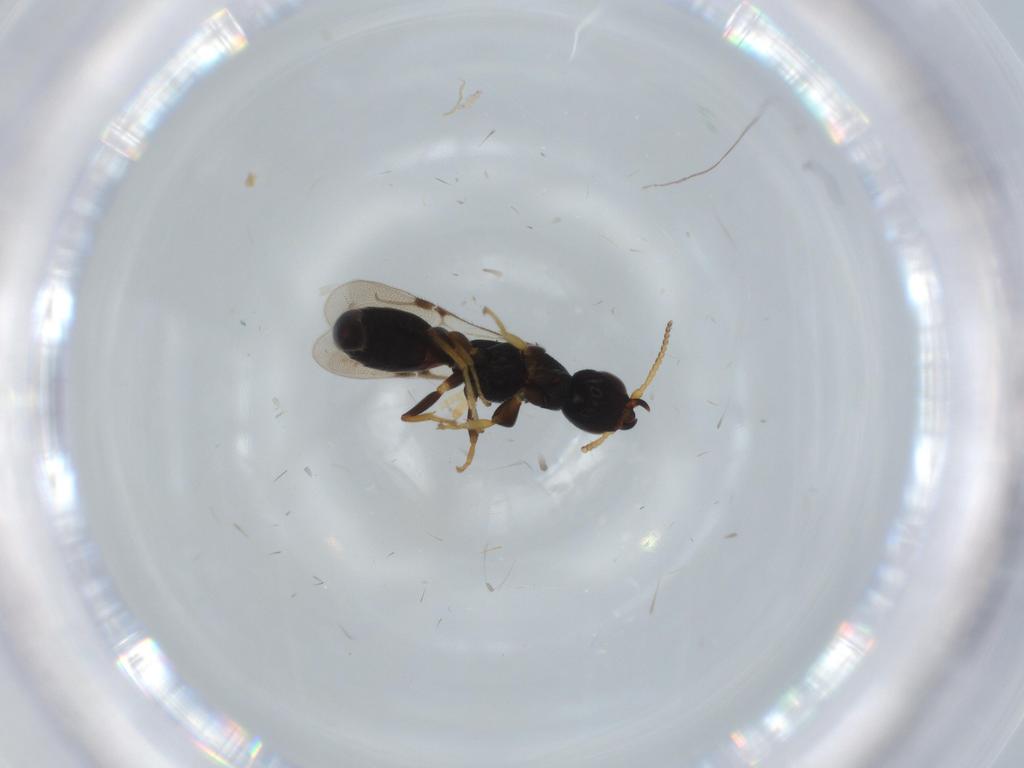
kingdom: Animalia
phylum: Arthropoda
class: Insecta
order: Hymenoptera
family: Bethylidae
